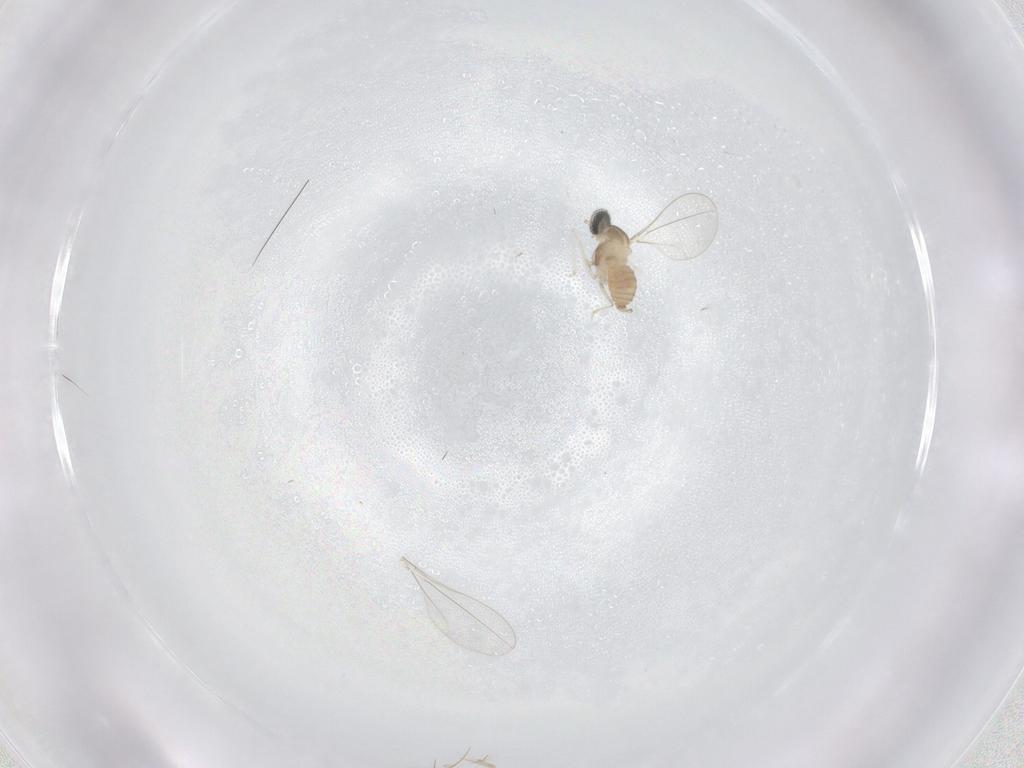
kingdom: Animalia
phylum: Arthropoda
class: Insecta
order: Diptera
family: Cecidomyiidae
